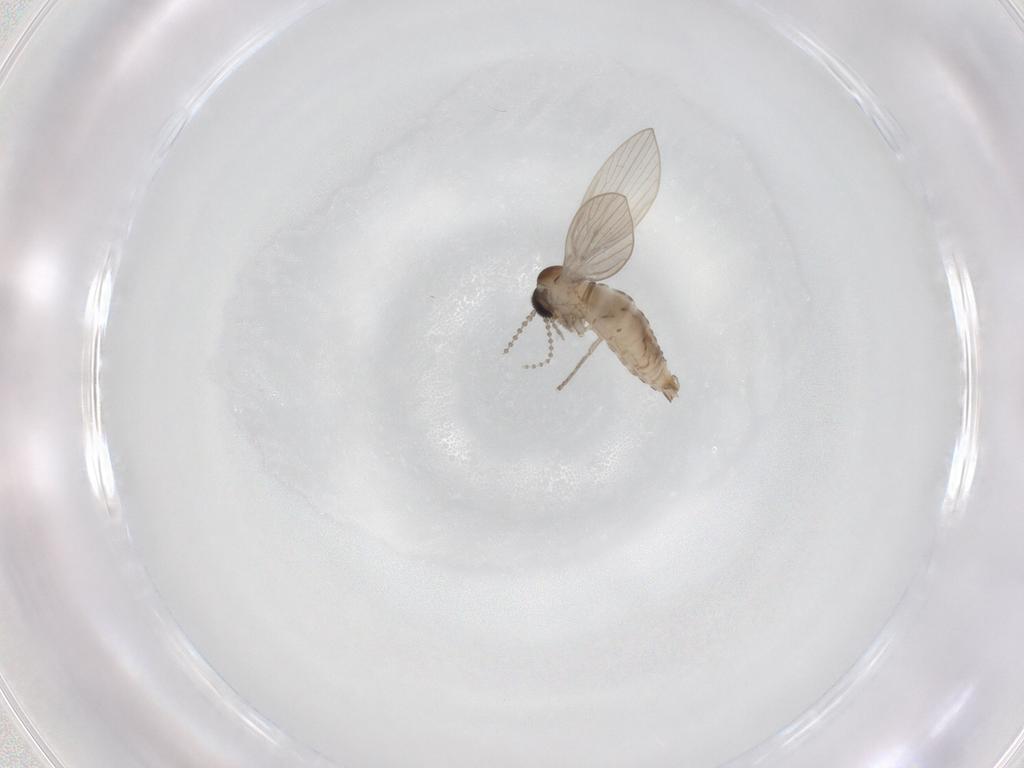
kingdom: Animalia
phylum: Arthropoda
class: Insecta
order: Diptera
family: Psychodidae
